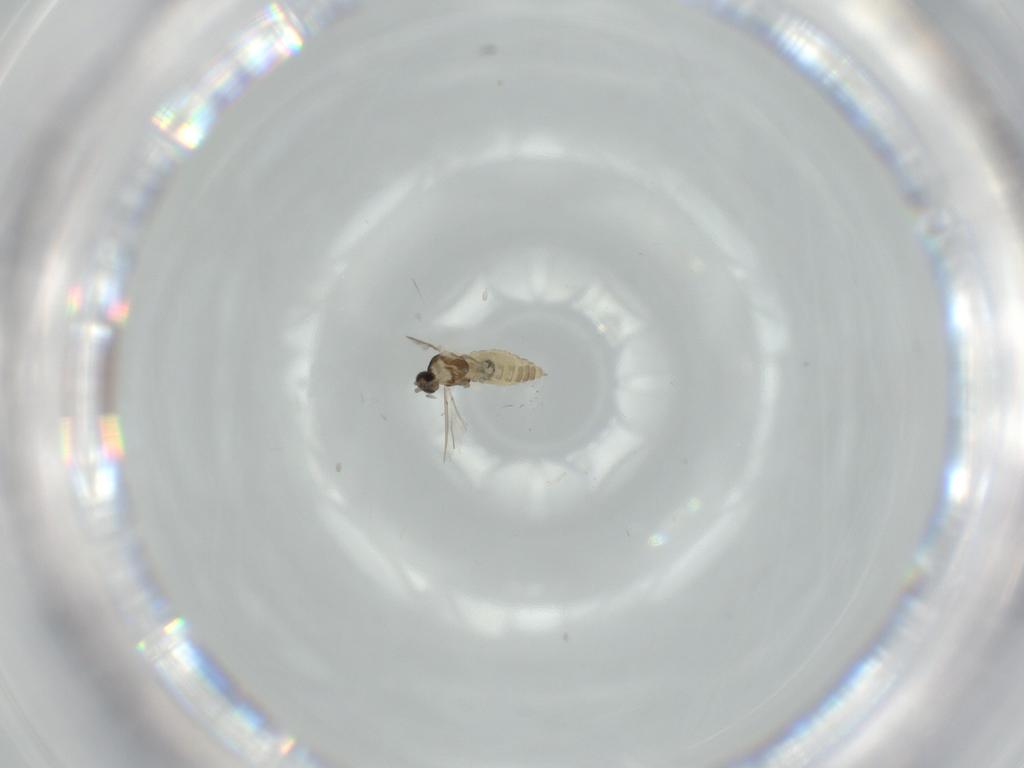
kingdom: Animalia
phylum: Arthropoda
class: Insecta
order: Diptera
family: Cecidomyiidae
